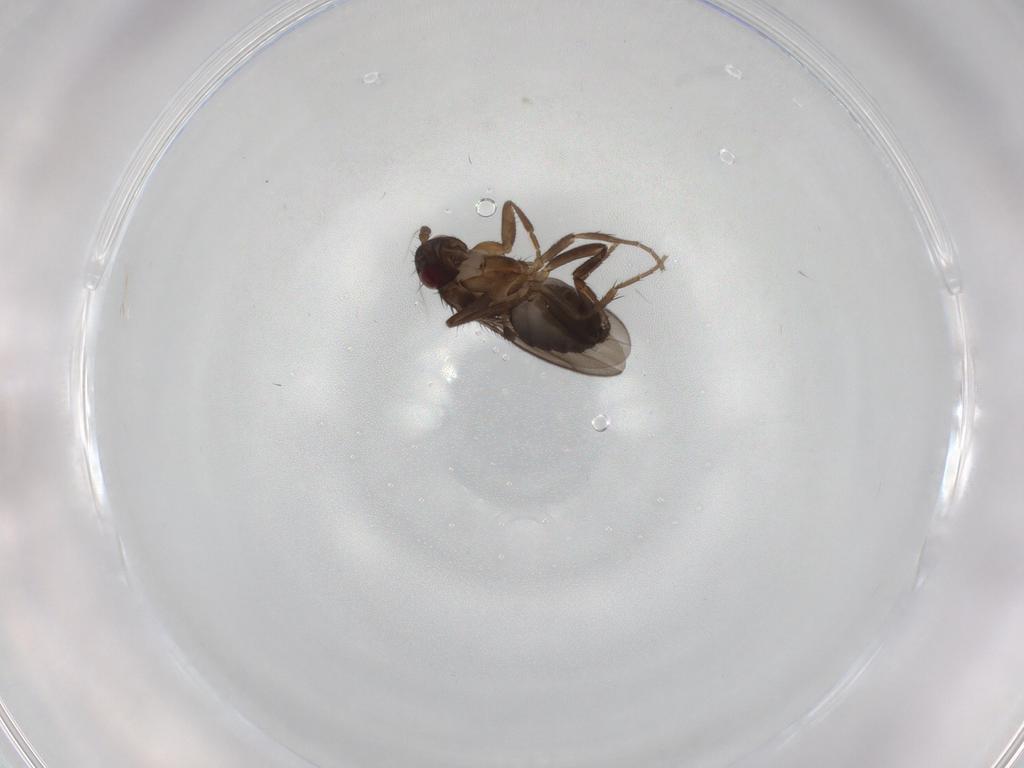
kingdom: Animalia
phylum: Arthropoda
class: Insecta
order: Diptera
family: Sphaeroceridae
